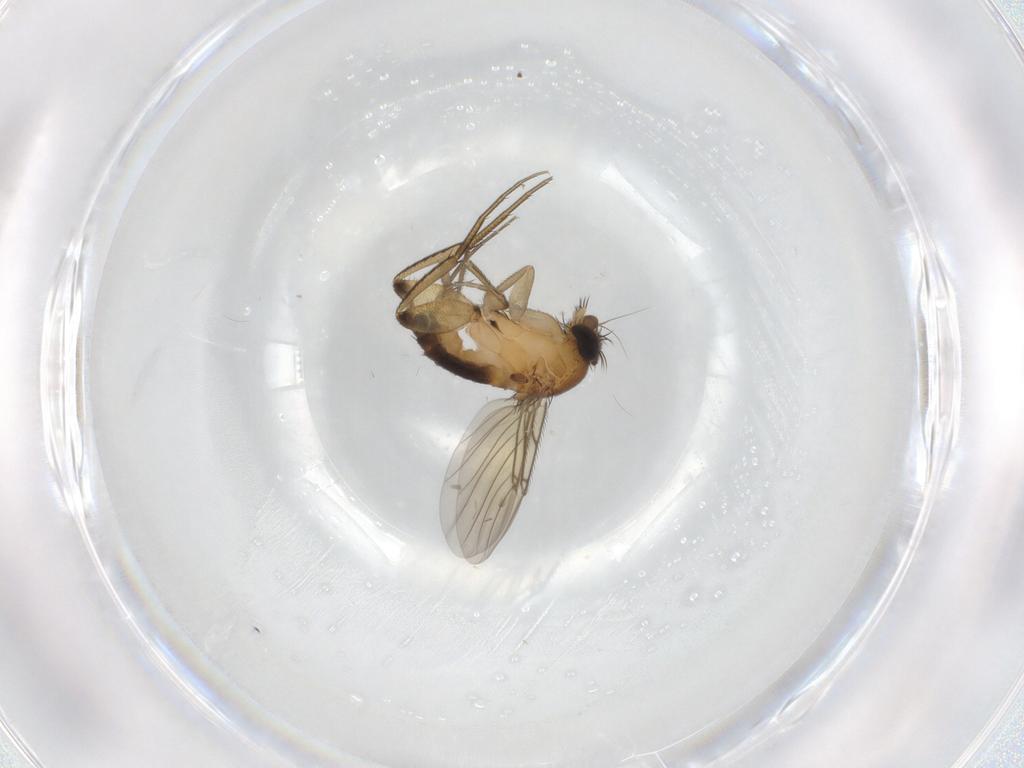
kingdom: Animalia
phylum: Arthropoda
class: Insecta
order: Diptera
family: Phoridae
